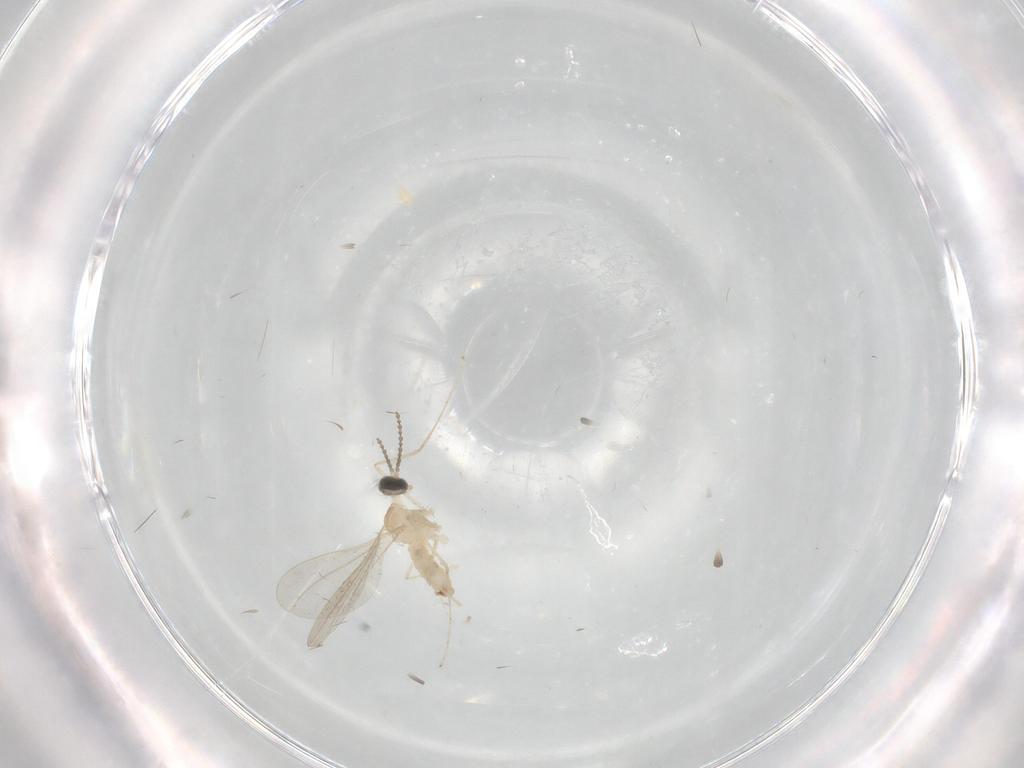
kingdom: Animalia
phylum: Arthropoda
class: Insecta
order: Diptera
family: Cecidomyiidae
